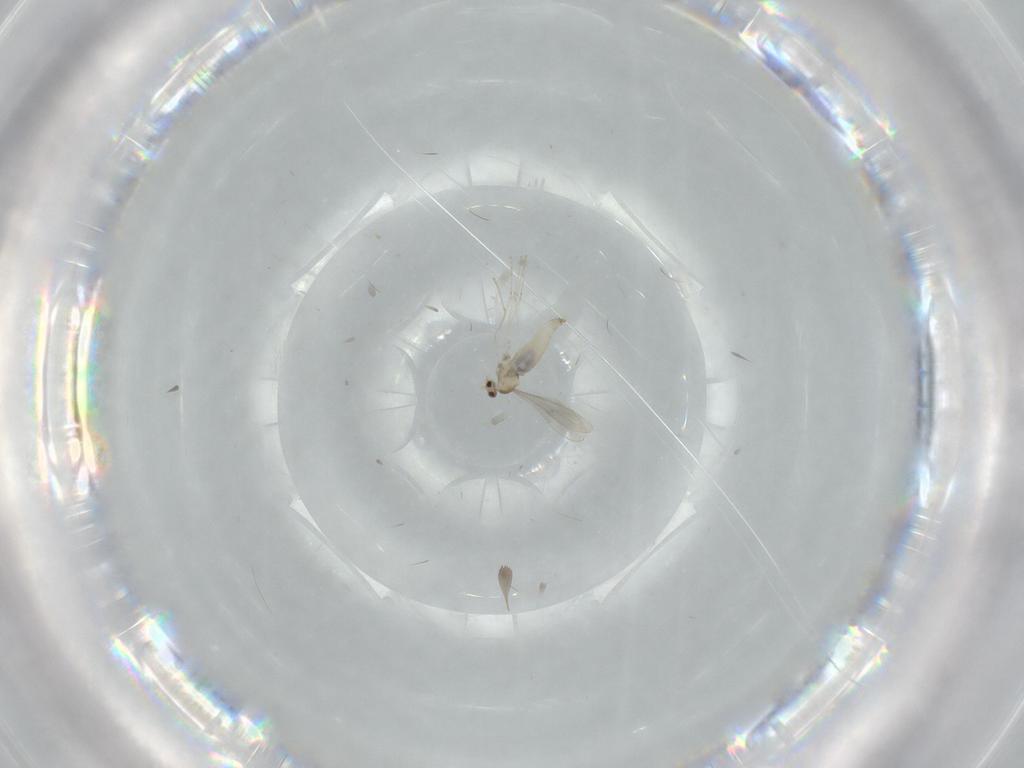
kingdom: Animalia
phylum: Arthropoda
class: Insecta
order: Diptera
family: Cecidomyiidae
